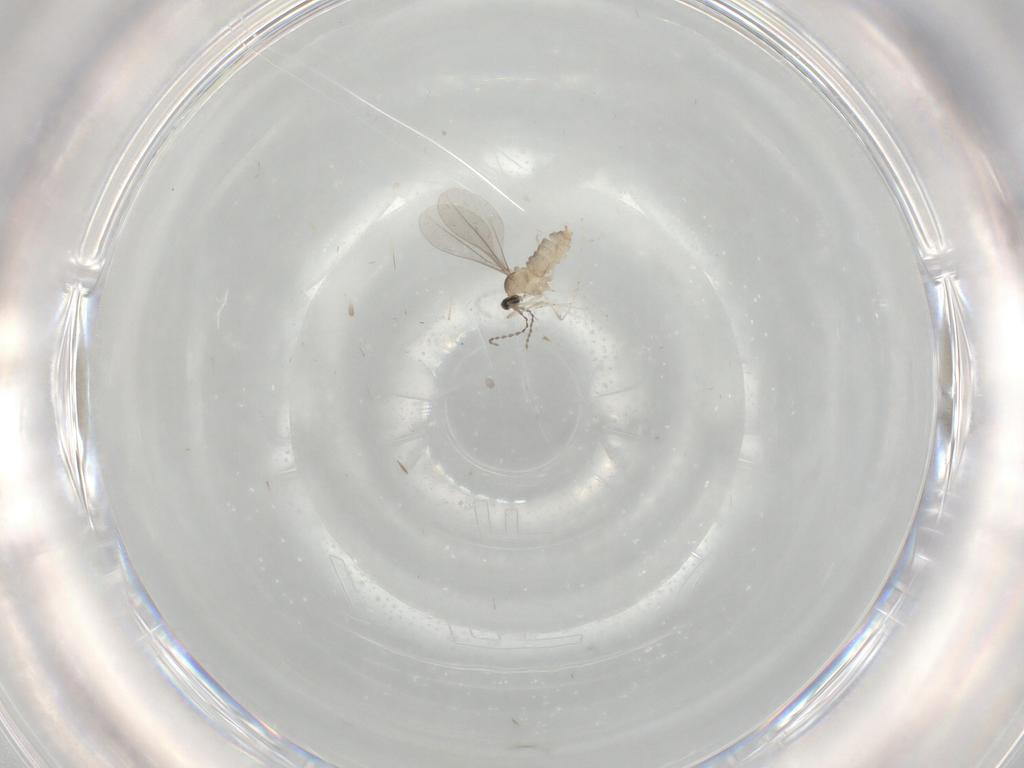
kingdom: Animalia
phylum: Arthropoda
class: Insecta
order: Diptera
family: Cecidomyiidae
